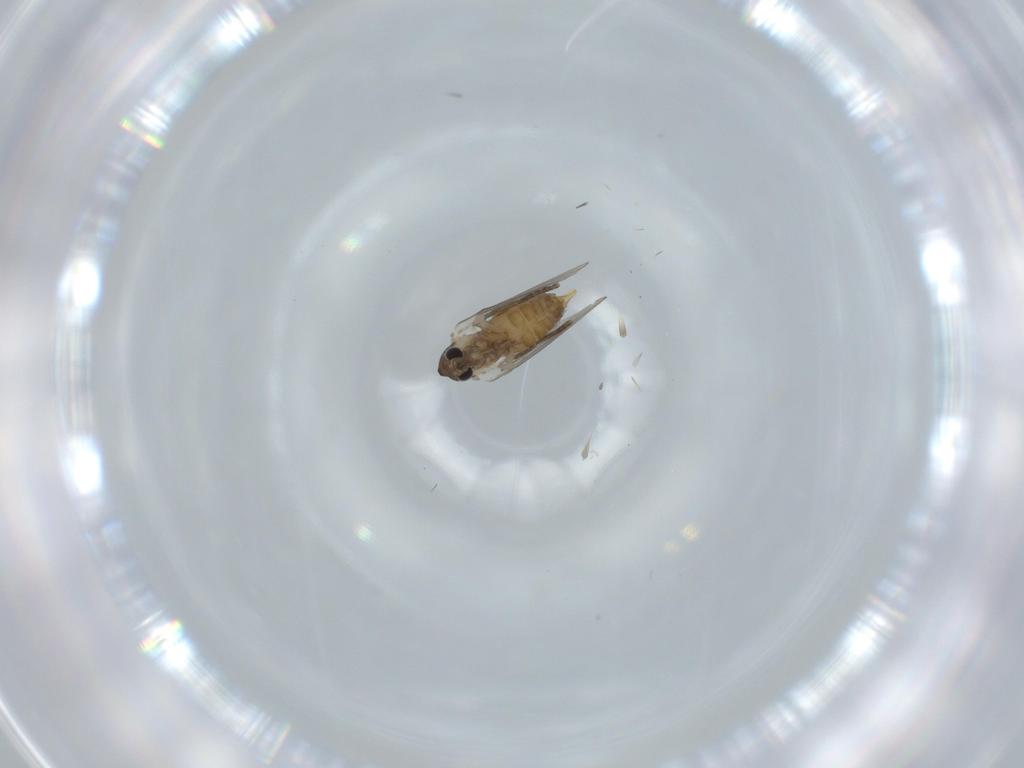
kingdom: Animalia
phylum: Arthropoda
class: Insecta
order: Diptera
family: Psychodidae
